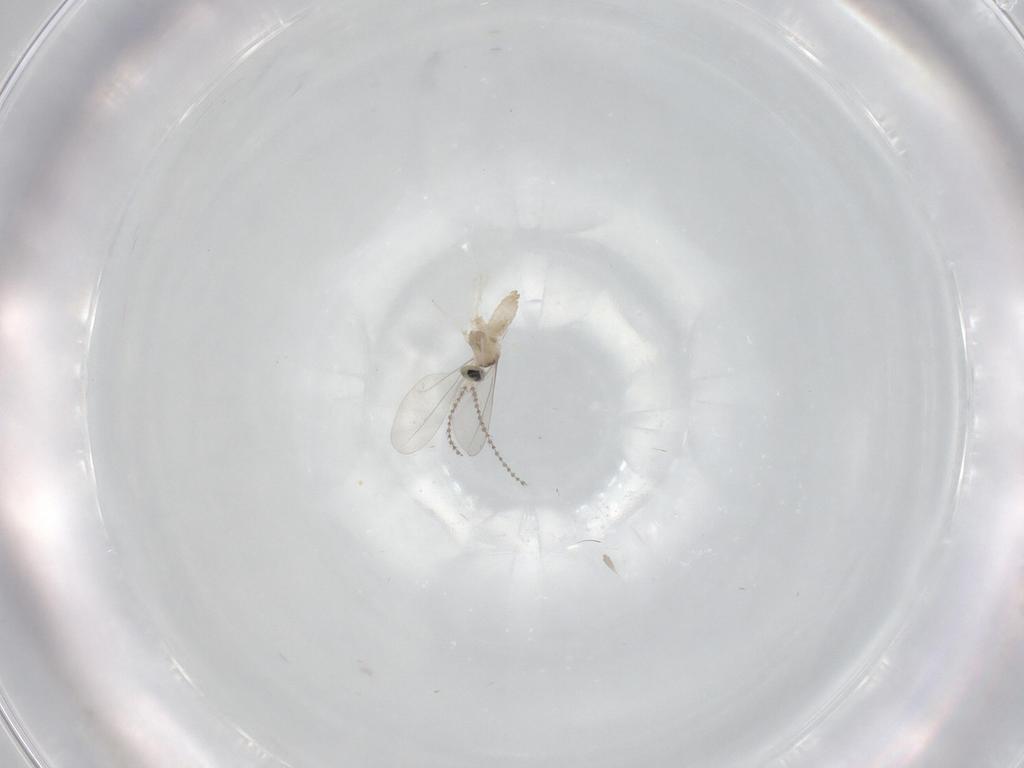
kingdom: Animalia
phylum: Arthropoda
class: Insecta
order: Diptera
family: Cecidomyiidae
